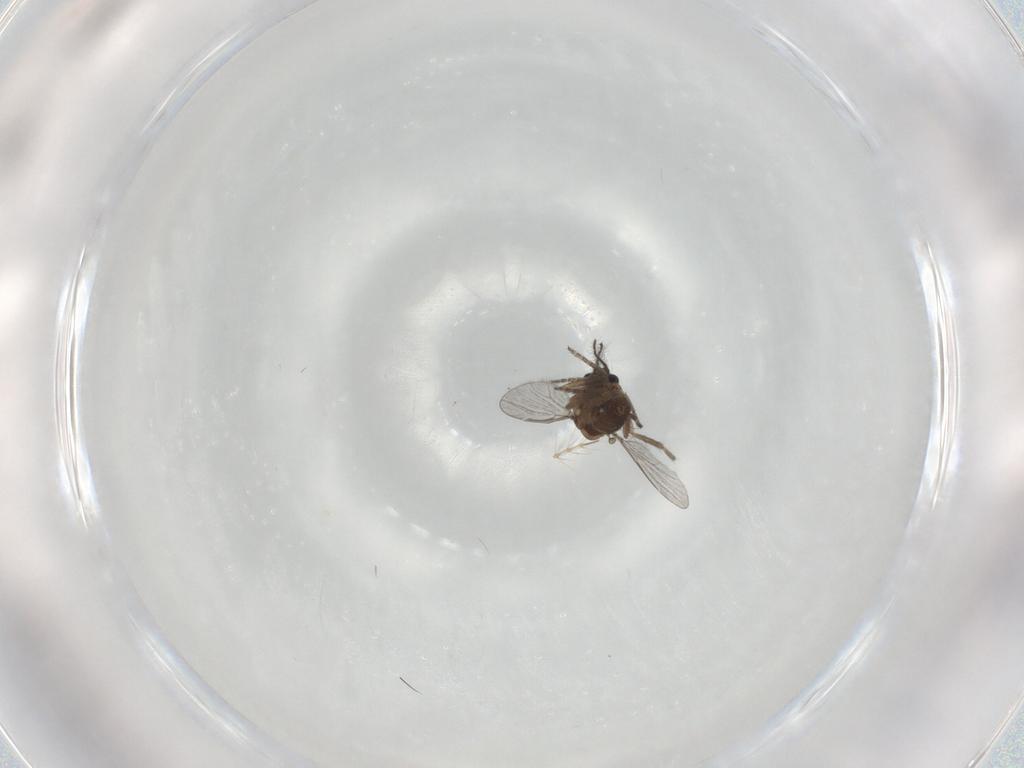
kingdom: Animalia
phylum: Arthropoda
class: Insecta
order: Diptera
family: Chironomidae
